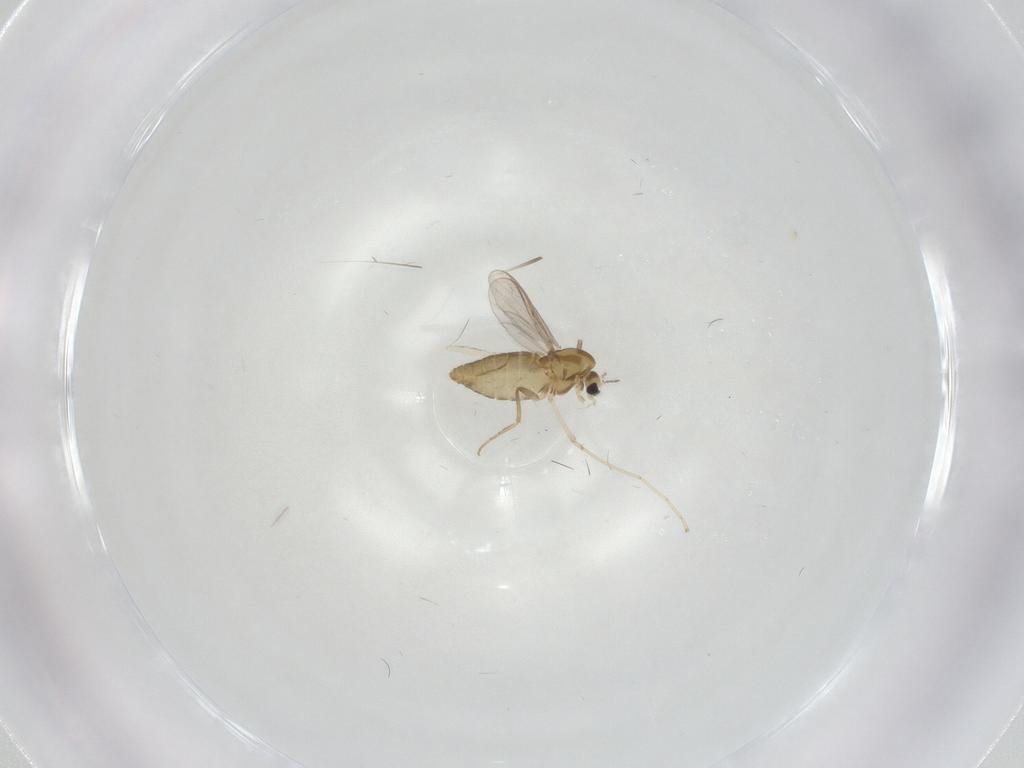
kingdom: Animalia
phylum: Arthropoda
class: Insecta
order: Diptera
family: Chironomidae
